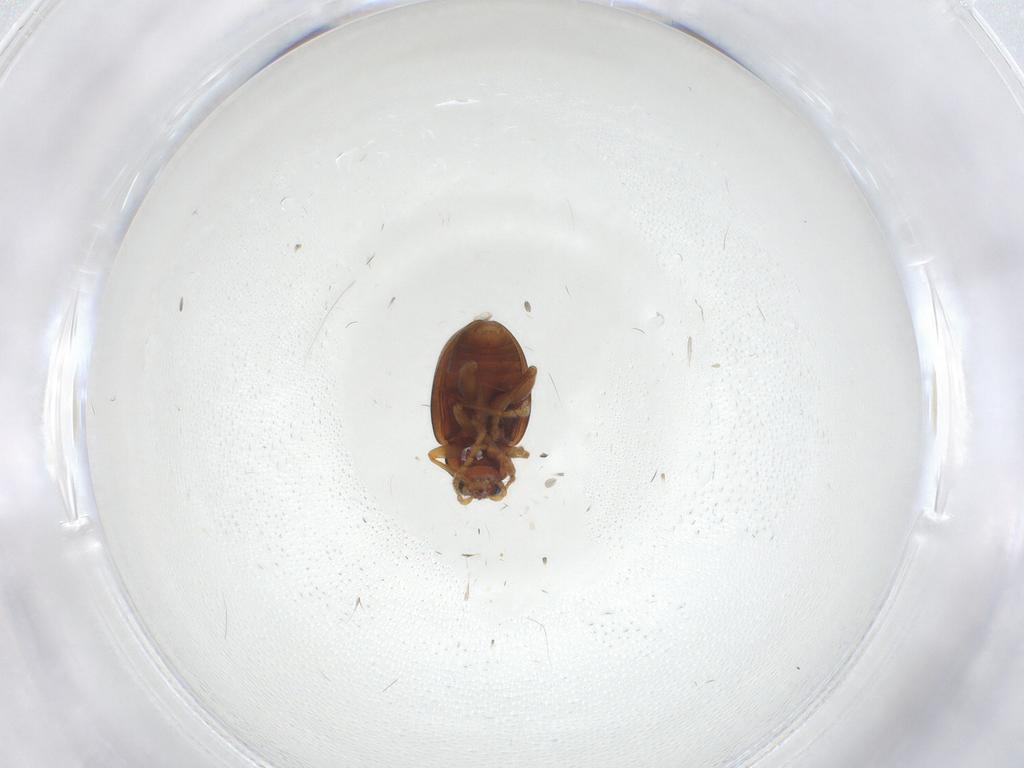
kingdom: Animalia
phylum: Arthropoda
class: Insecta
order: Coleoptera
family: Chrysomelidae
